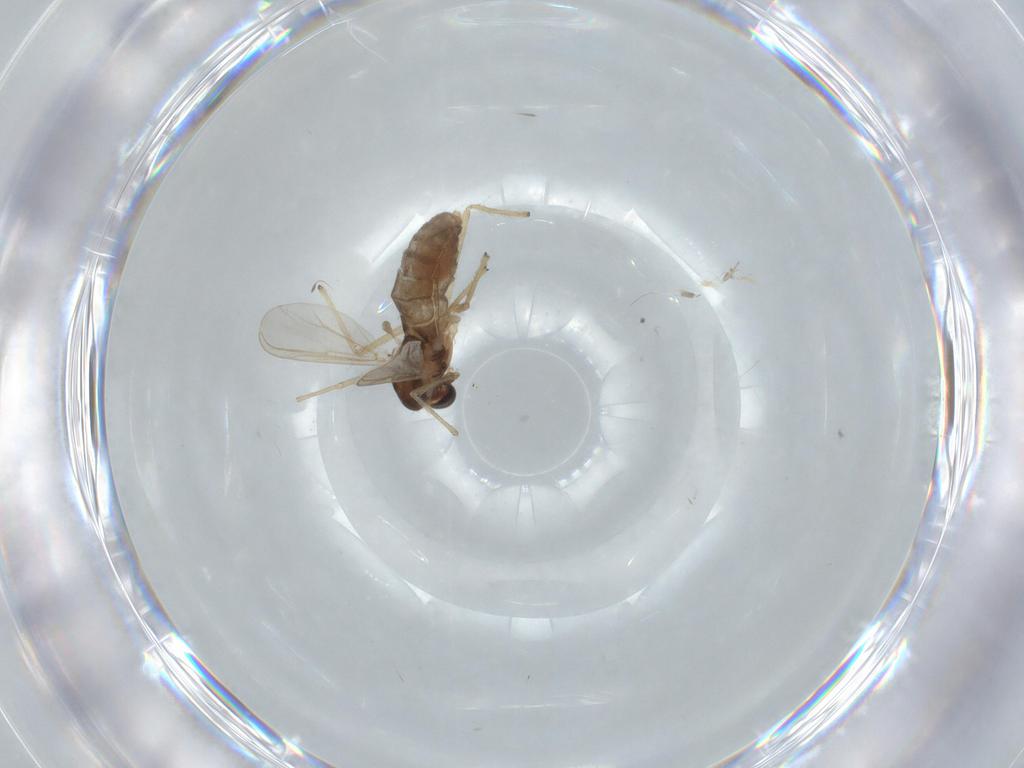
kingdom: Animalia
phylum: Arthropoda
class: Insecta
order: Diptera
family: Chironomidae
